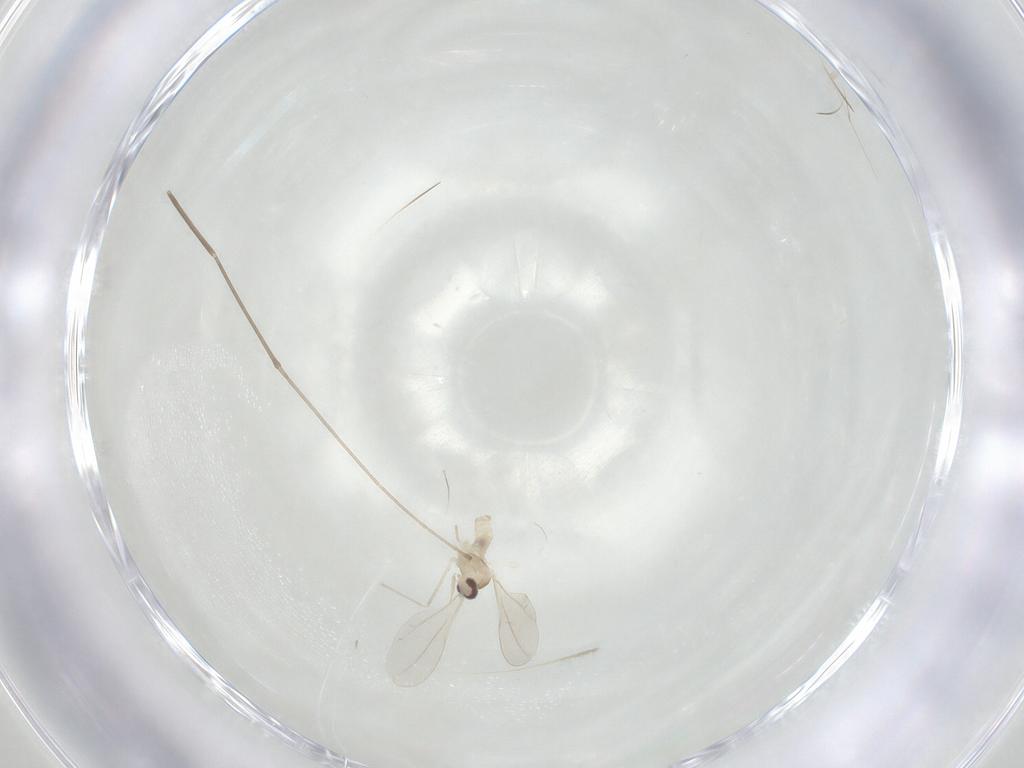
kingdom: Animalia
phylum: Arthropoda
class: Insecta
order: Diptera
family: Cecidomyiidae
